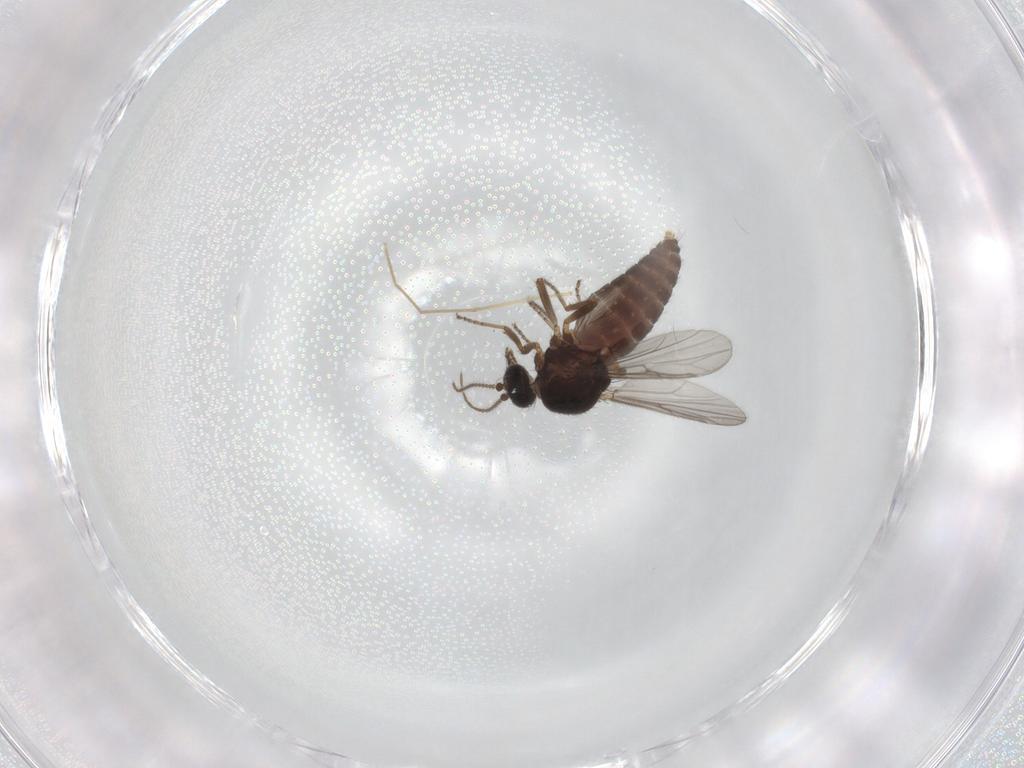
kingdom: Animalia
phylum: Arthropoda
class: Insecta
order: Diptera
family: Ceratopogonidae
